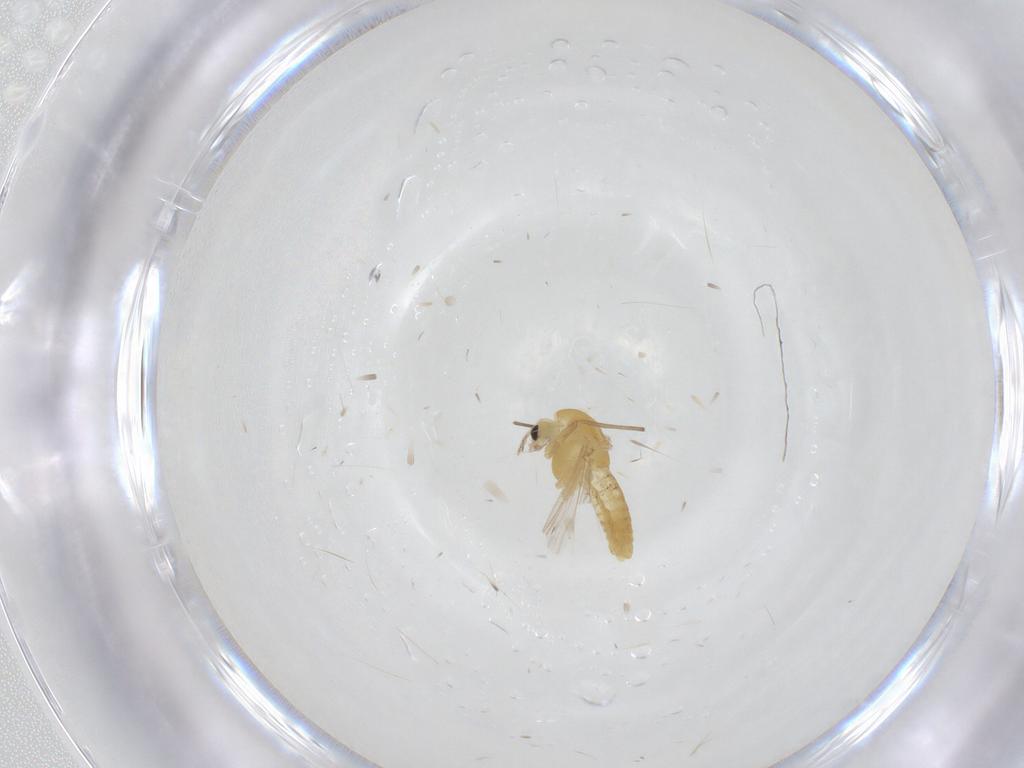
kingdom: Animalia
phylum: Arthropoda
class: Insecta
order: Diptera
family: Chironomidae
